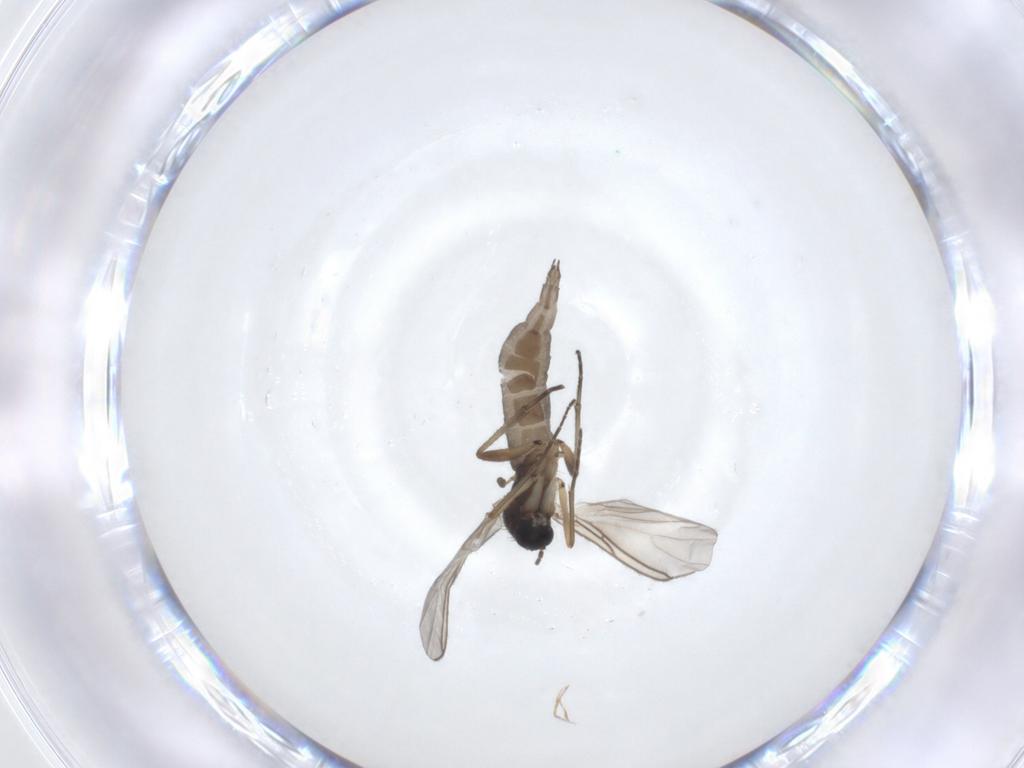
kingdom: Animalia
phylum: Arthropoda
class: Insecta
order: Diptera
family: Sciaridae
